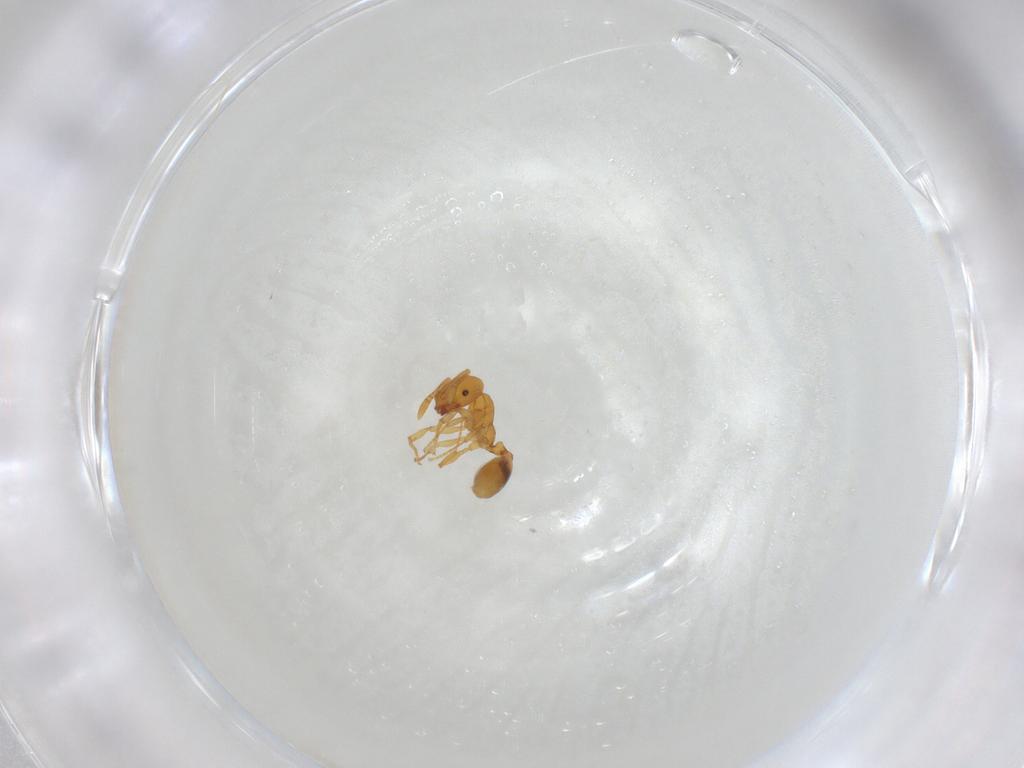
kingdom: Animalia
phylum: Arthropoda
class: Insecta
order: Hymenoptera
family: Formicidae
